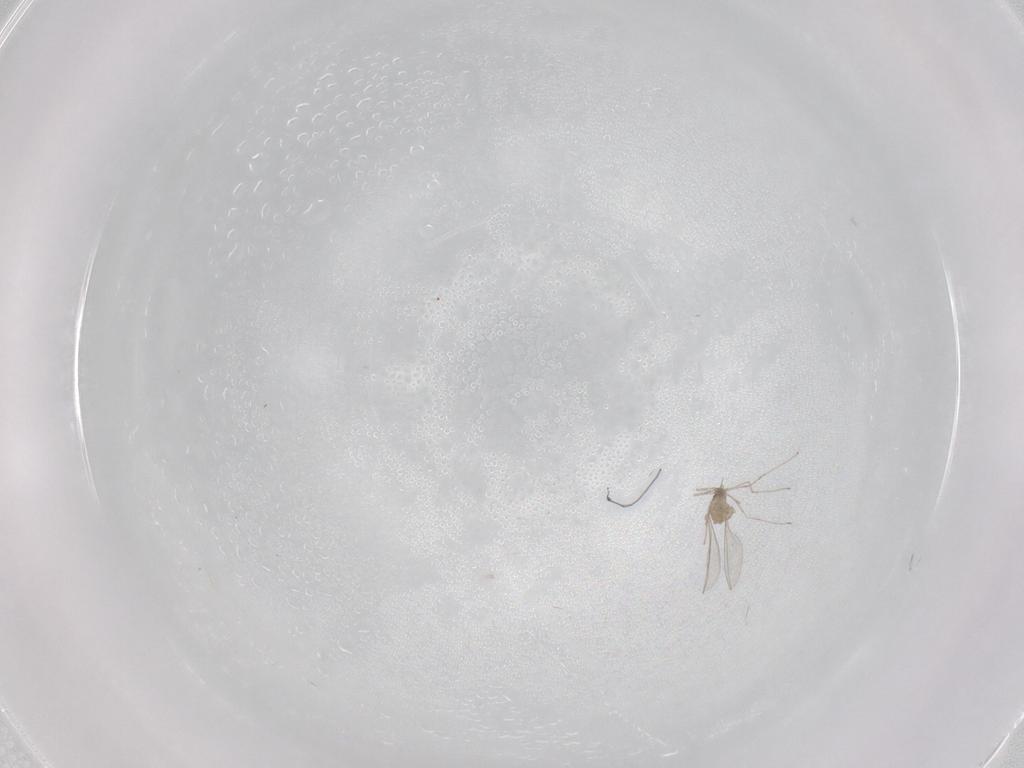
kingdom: Animalia
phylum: Arthropoda
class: Insecta
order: Diptera
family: Cecidomyiidae
